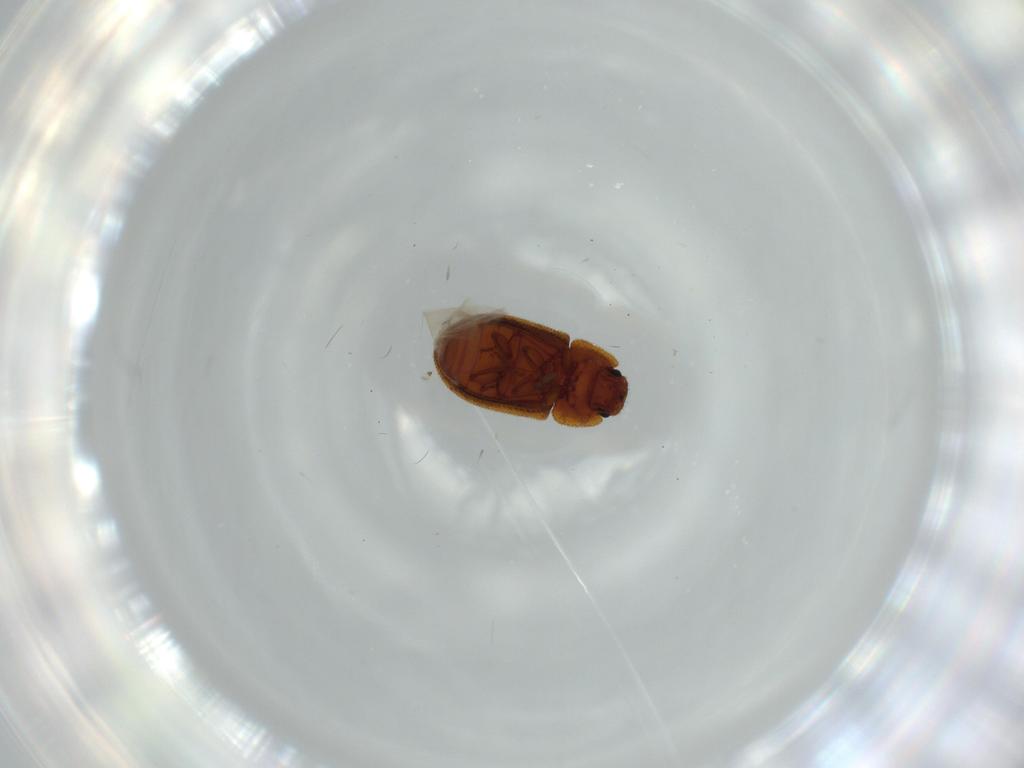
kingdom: Animalia
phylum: Arthropoda
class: Insecta
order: Coleoptera
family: Zopheridae
